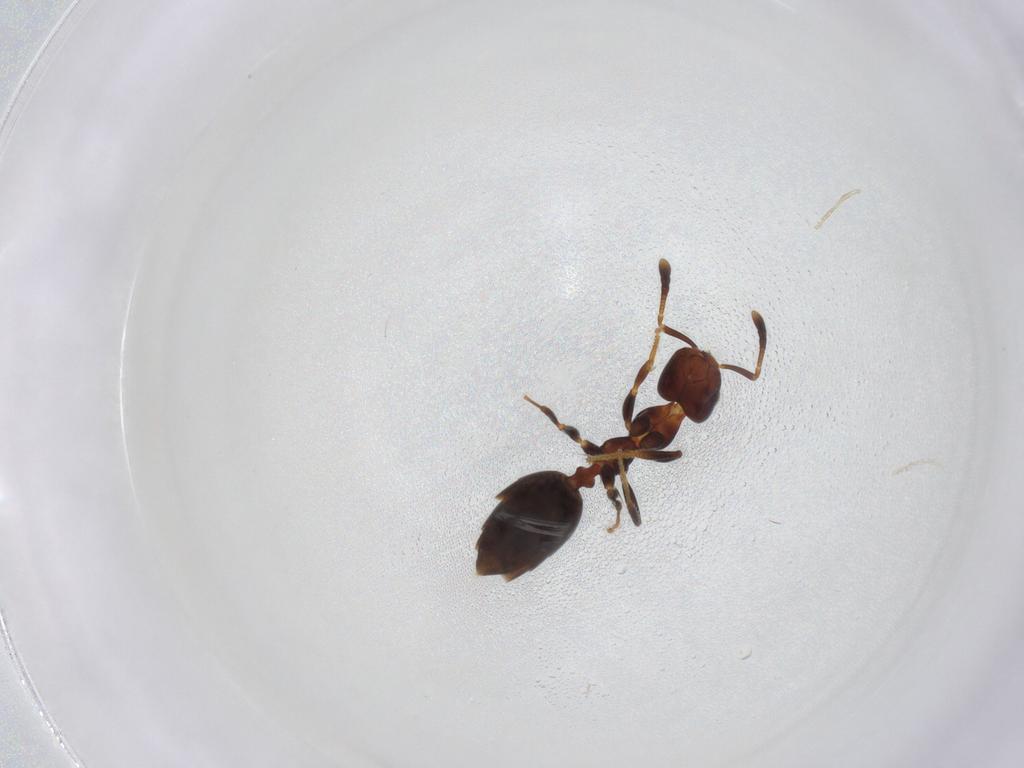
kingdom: Animalia
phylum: Arthropoda
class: Insecta
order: Hymenoptera
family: Formicidae
